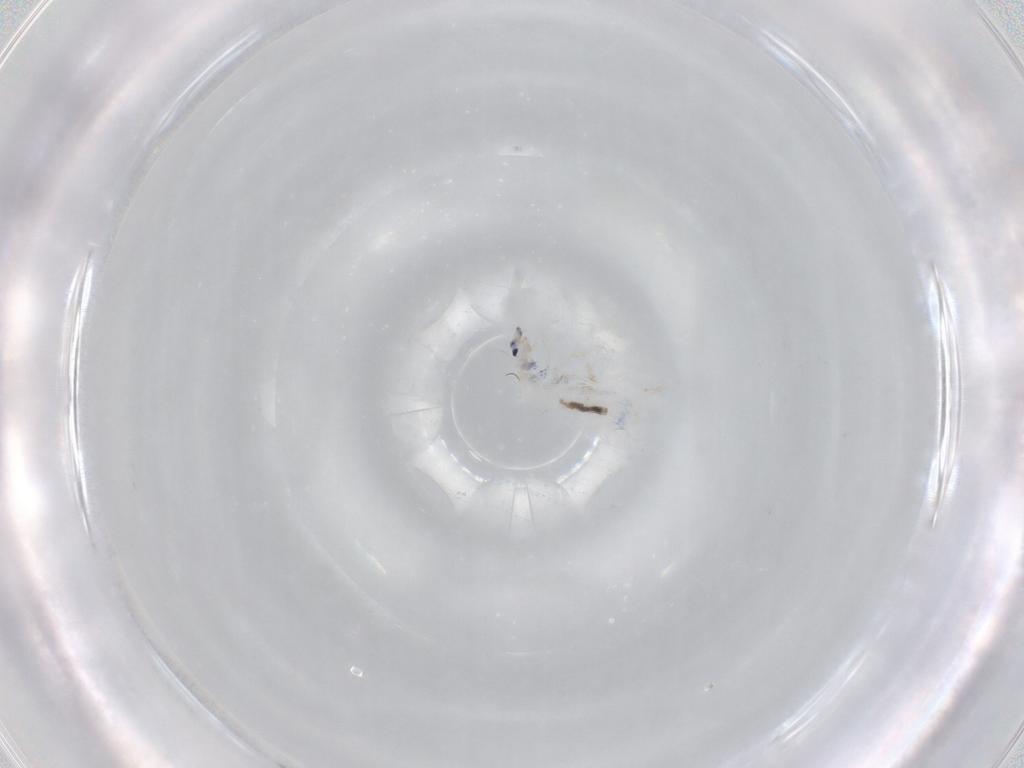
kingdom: Animalia
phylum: Arthropoda
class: Collembola
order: Entomobryomorpha
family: Entomobryidae
